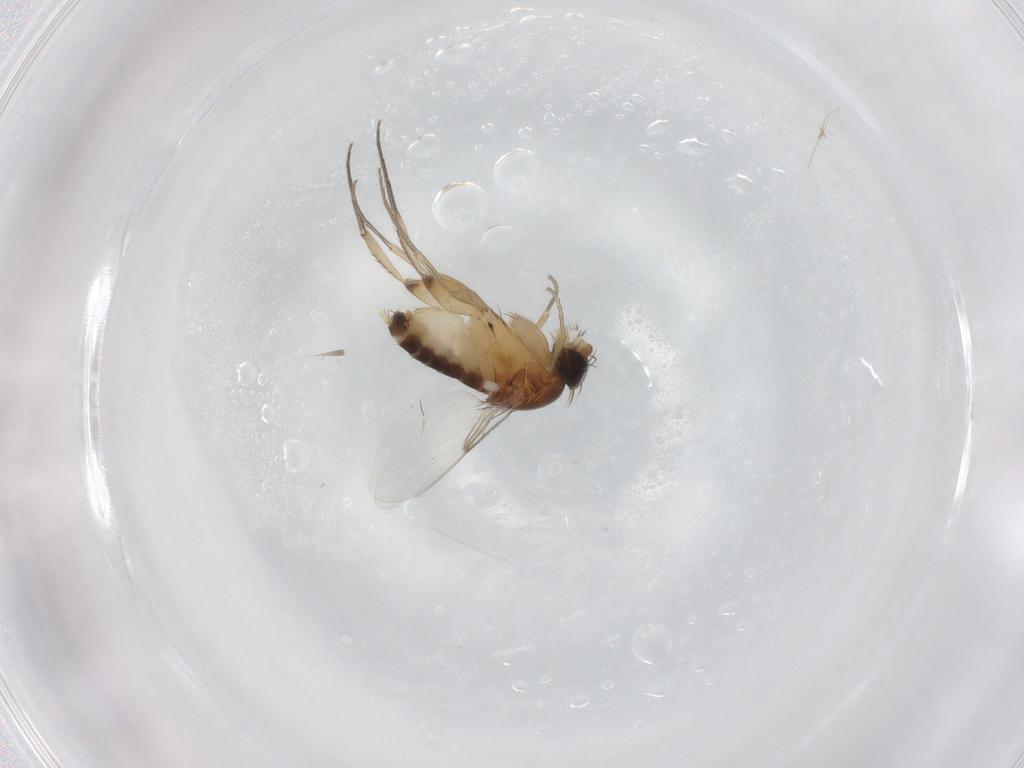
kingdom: Animalia
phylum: Arthropoda
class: Insecta
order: Diptera
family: Phoridae
